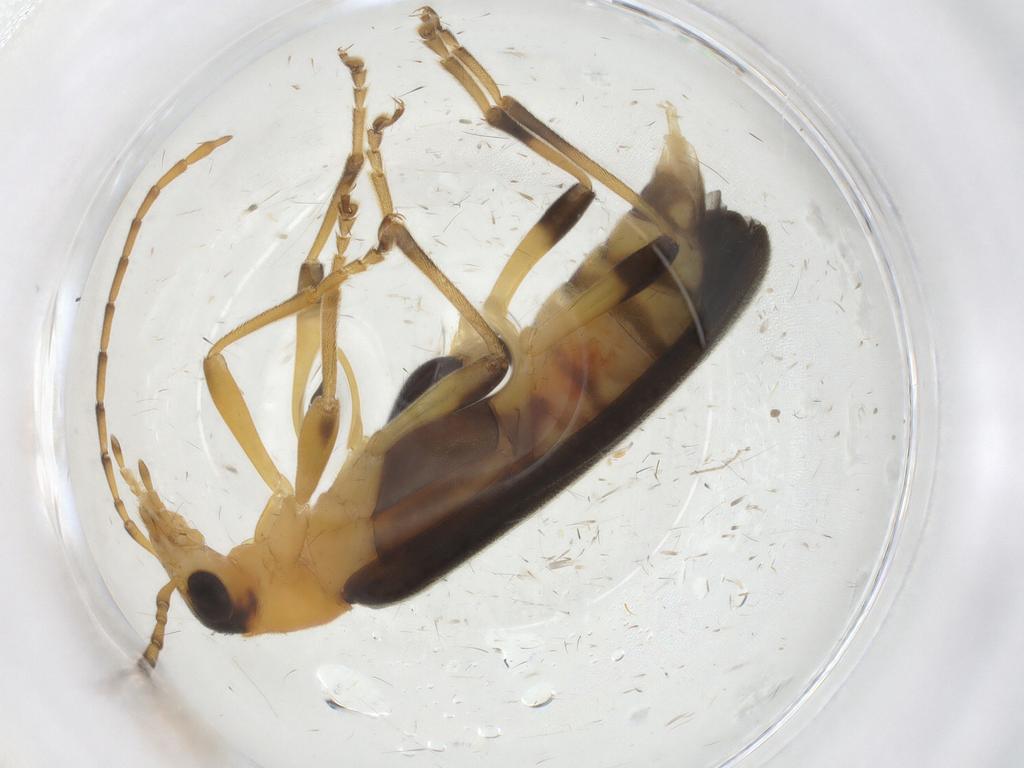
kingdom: Animalia
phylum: Arthropoda
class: Insecta
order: Coleoptera
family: Oedemeridae
